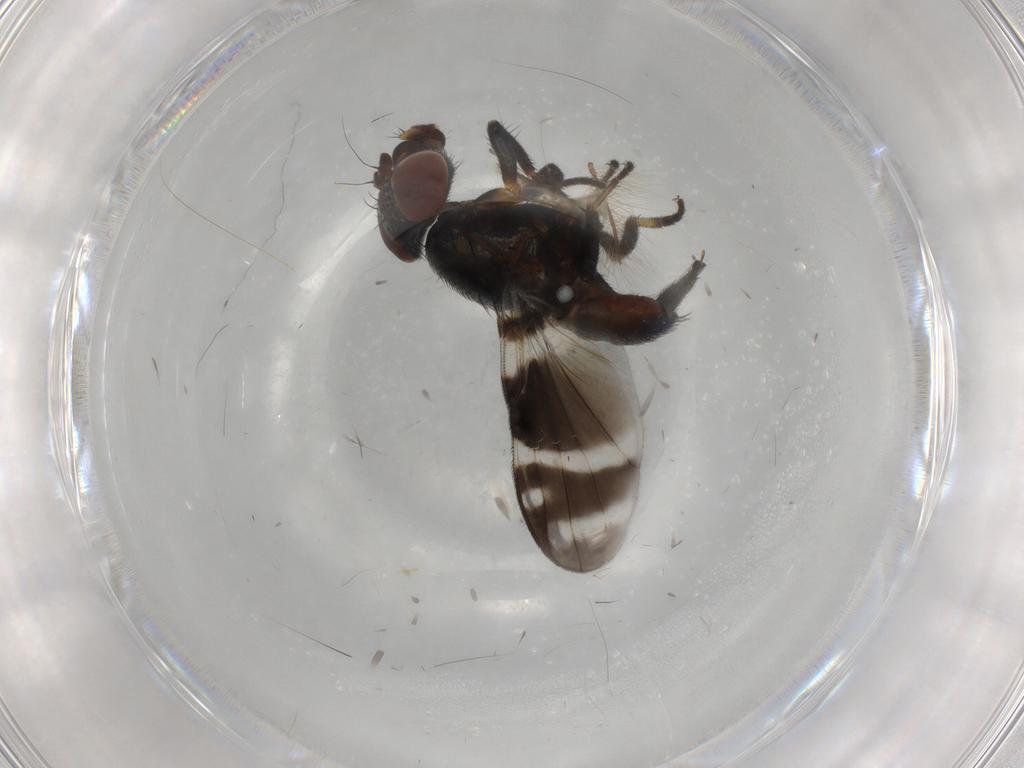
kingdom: Animalia
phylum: Arthropoda
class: Insecta
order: Diptera
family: Ulidiidae
